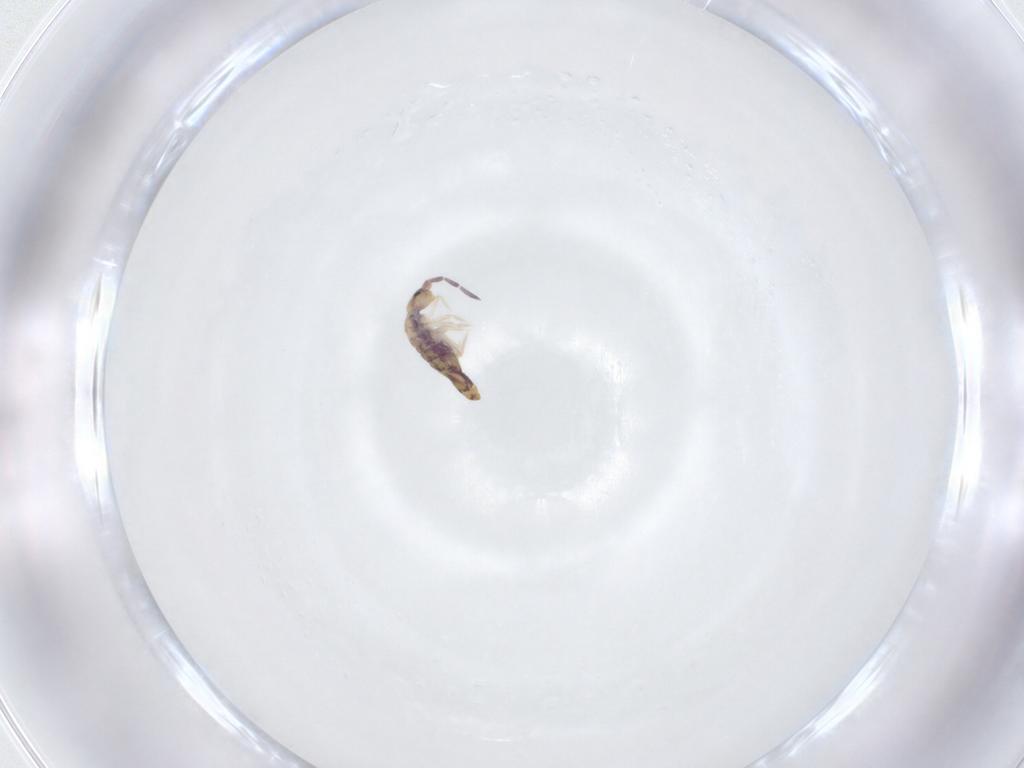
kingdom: Animalia
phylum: Arthropoda
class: Collembola
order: Entomobryomorpha
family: Entomobryidae
